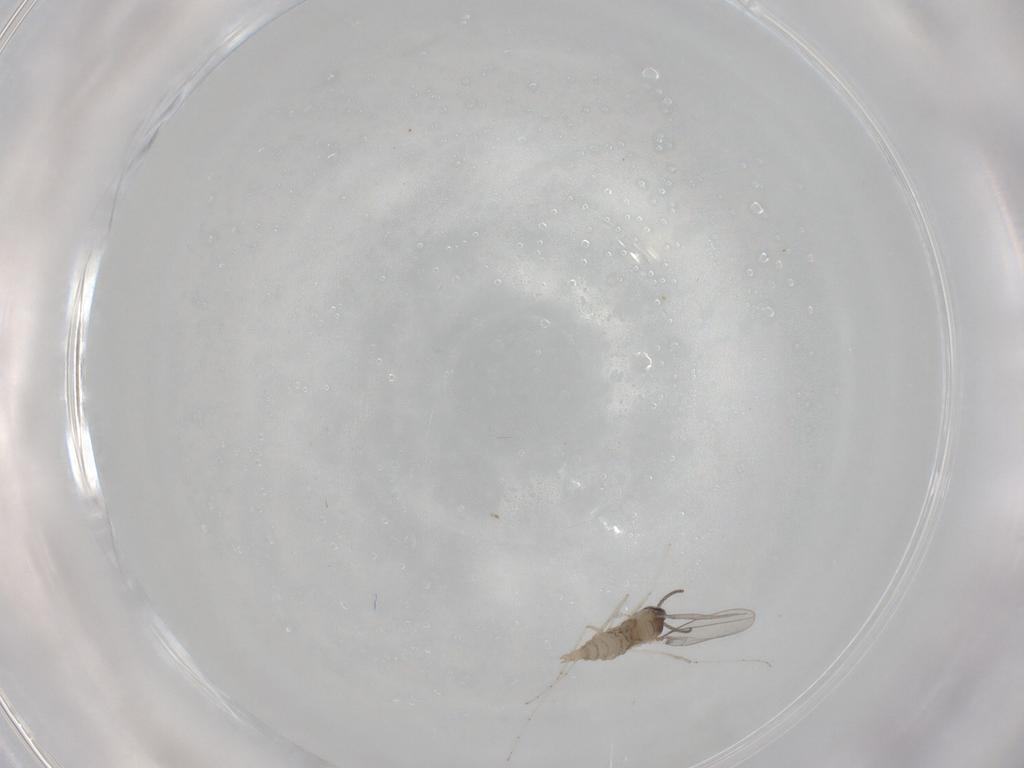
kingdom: Animalia
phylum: Arthropoda
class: Insecta
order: Diptera
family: Cecidomyiidae
